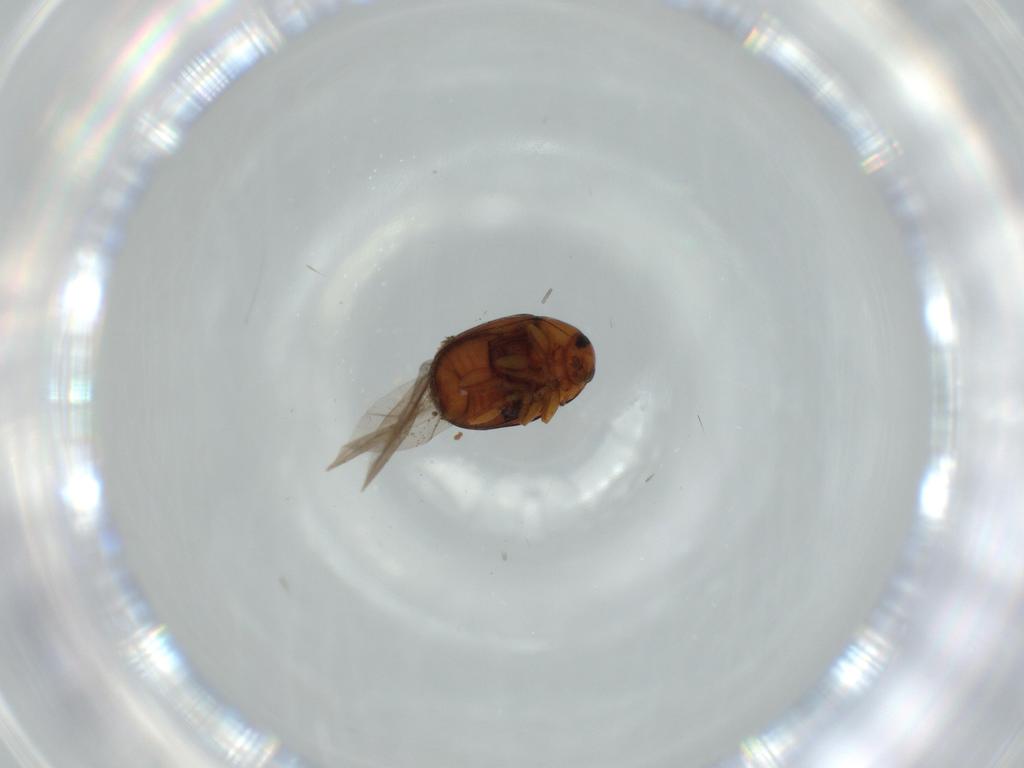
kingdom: Animalia
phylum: Arthropoda
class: Insecta
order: Coleoptera
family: Chrysomelidae
